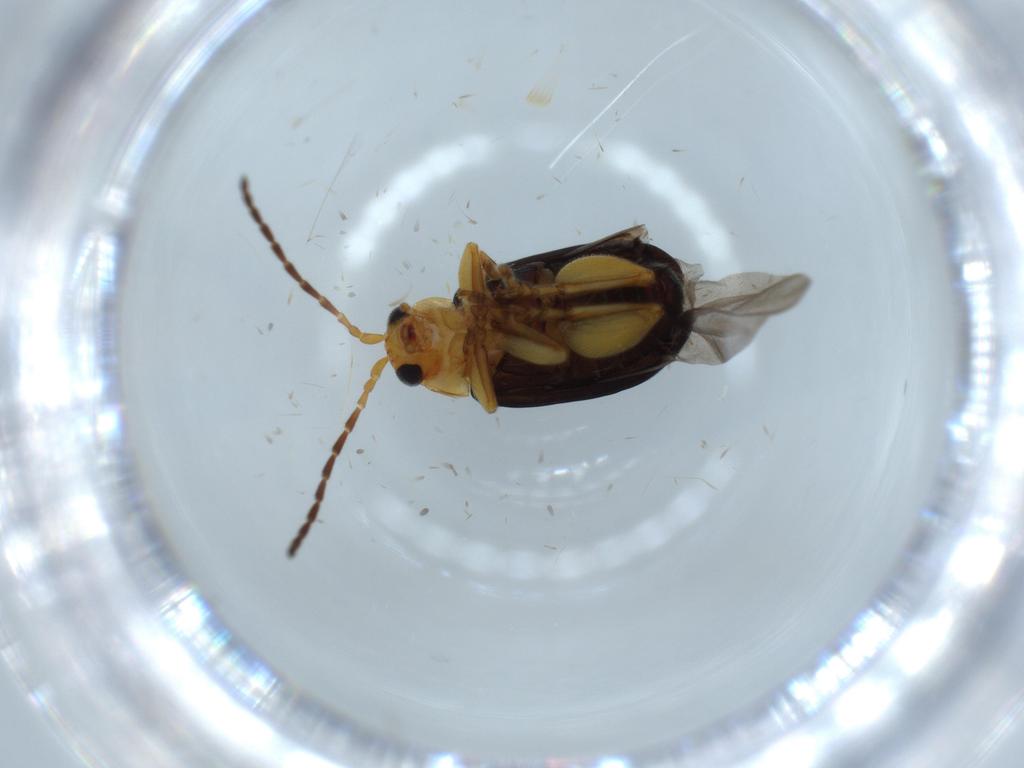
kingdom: Animalia
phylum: Arthropoda
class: Insecta
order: Coleoptera
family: Chrysomelidae
